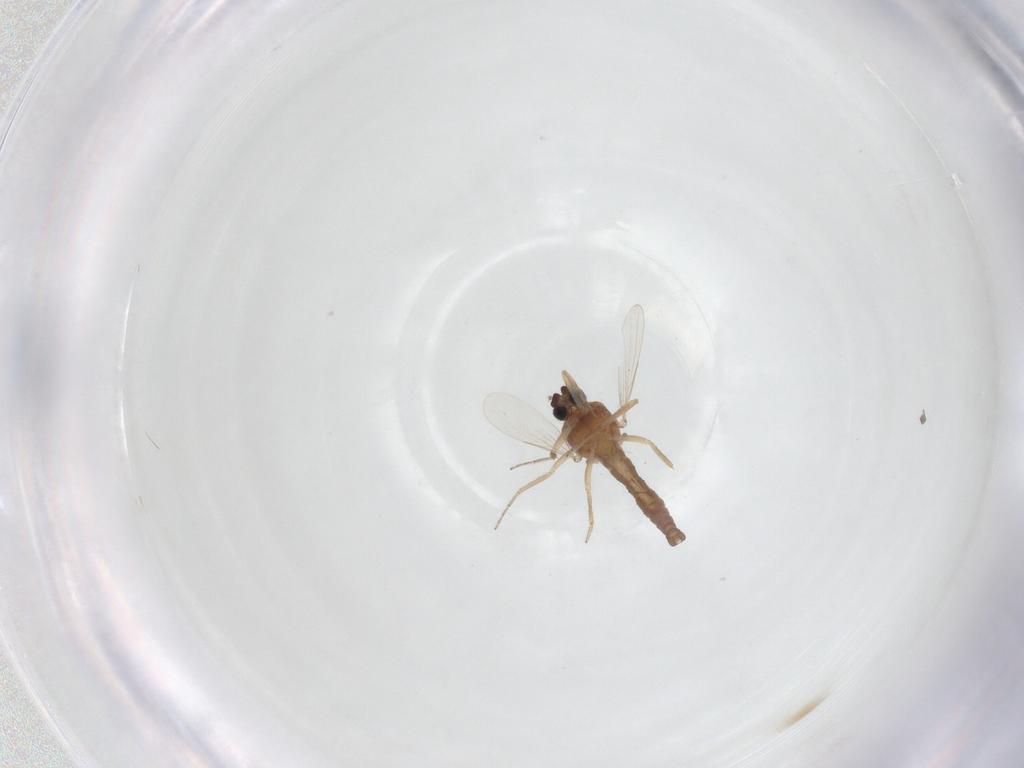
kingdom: Animalia
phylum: Arthropoda
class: Insecta
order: Diptera
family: Ceratopogonidae
